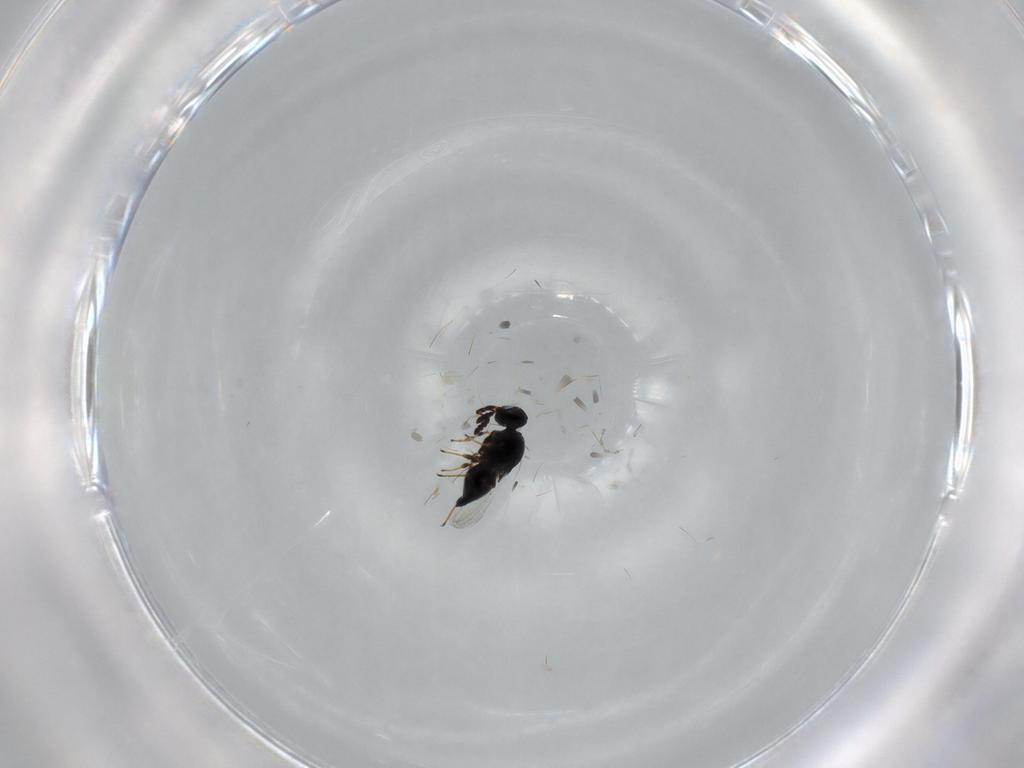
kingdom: Animalia
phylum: Arthropoda
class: Insecta
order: Hymenoptera
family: Platygastridae
